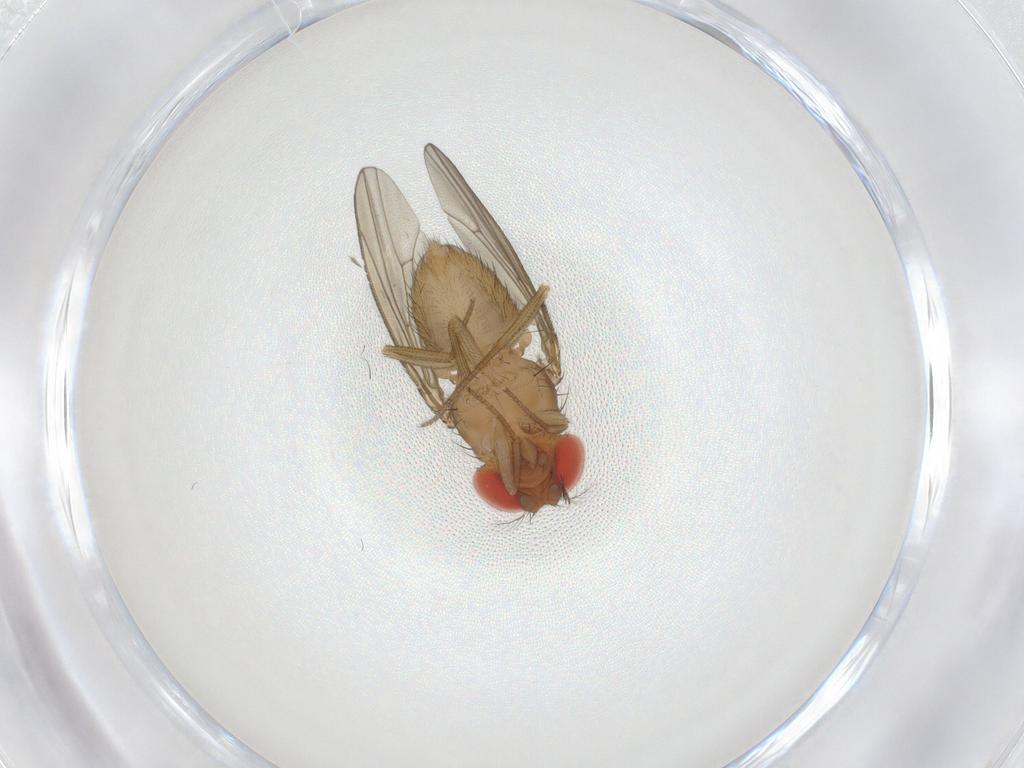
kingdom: Animalia
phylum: Arthropoda
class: Insecta
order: Diptera
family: Drosophilidae
